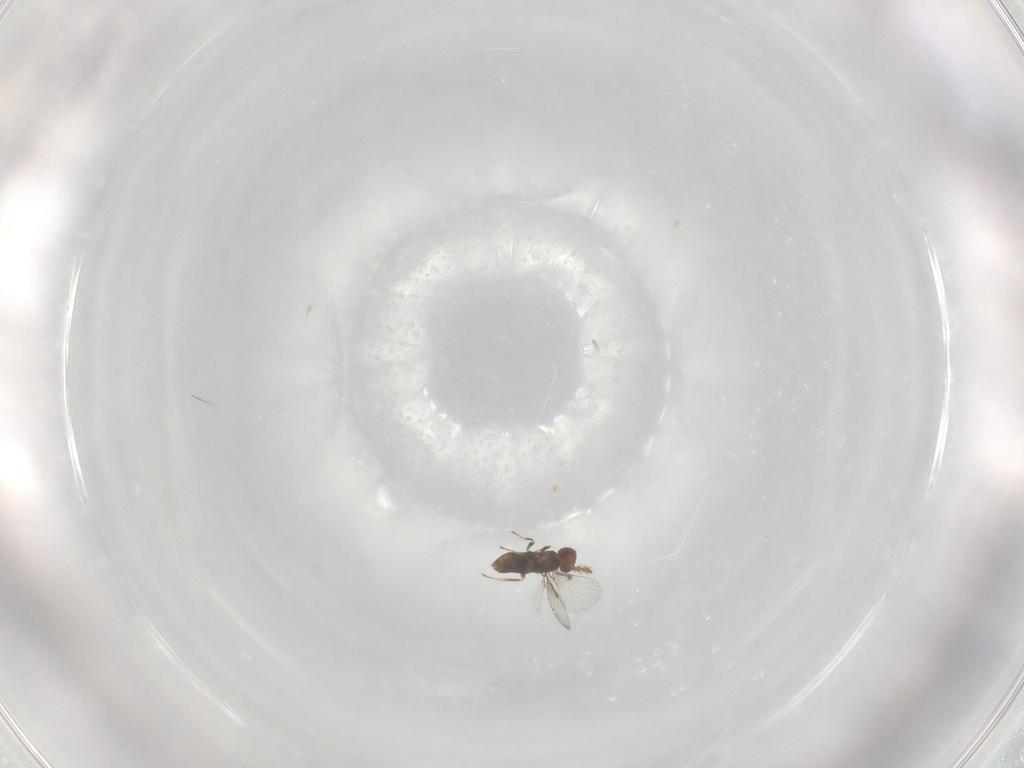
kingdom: Animalia
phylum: Arthropoda
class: Insecta
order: Hymenoptera
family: Agaonidae
